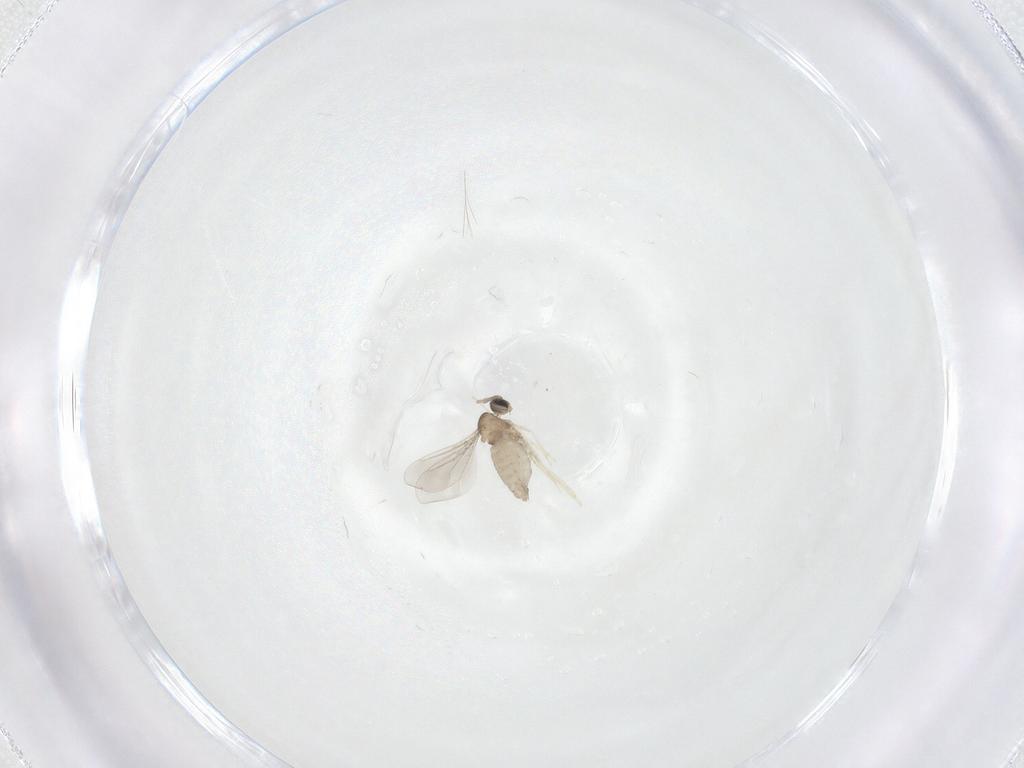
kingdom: Animalia
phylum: Arthropoda
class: Insecta
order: Diptera
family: Cecidomyiidae
